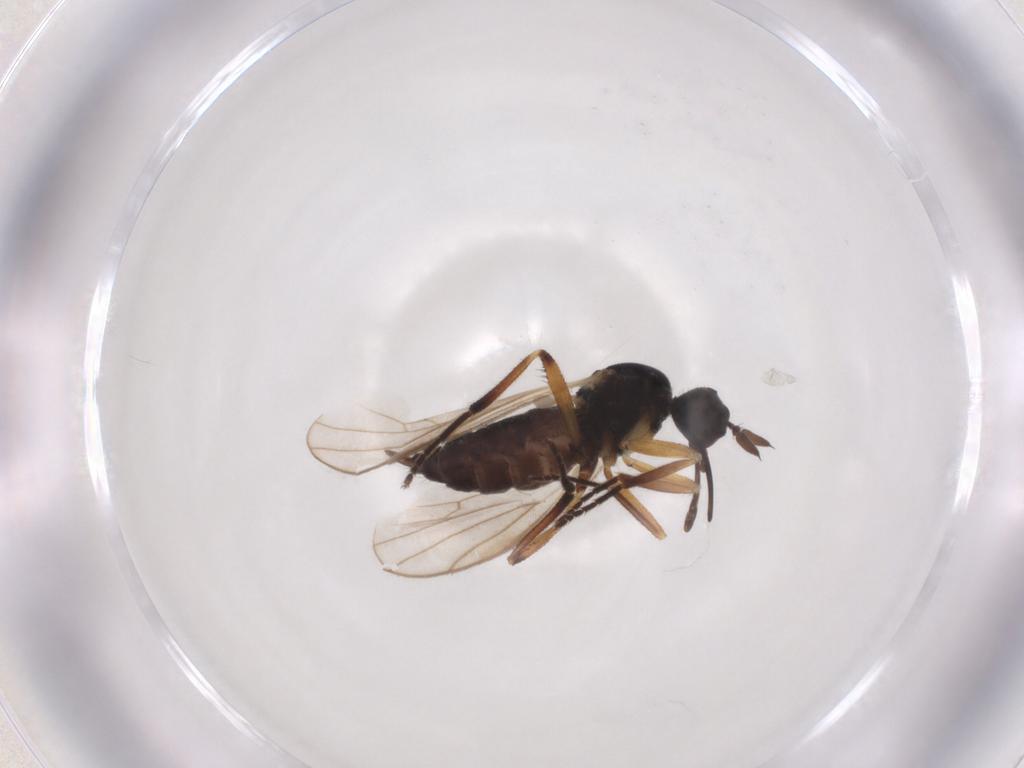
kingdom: Animalia
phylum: Arthropoda
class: Insecta
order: Diptera
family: Hybotidae
